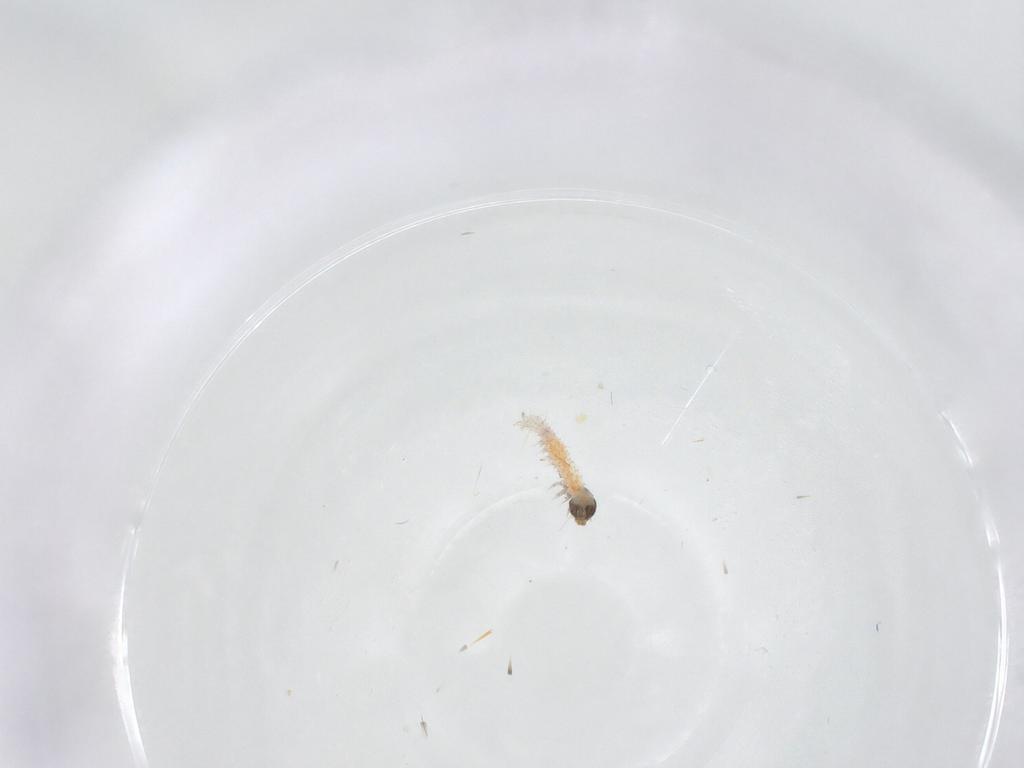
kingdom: Animalia
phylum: Arthropoda
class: Insecta
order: Lepidoptera
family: Crambidae
